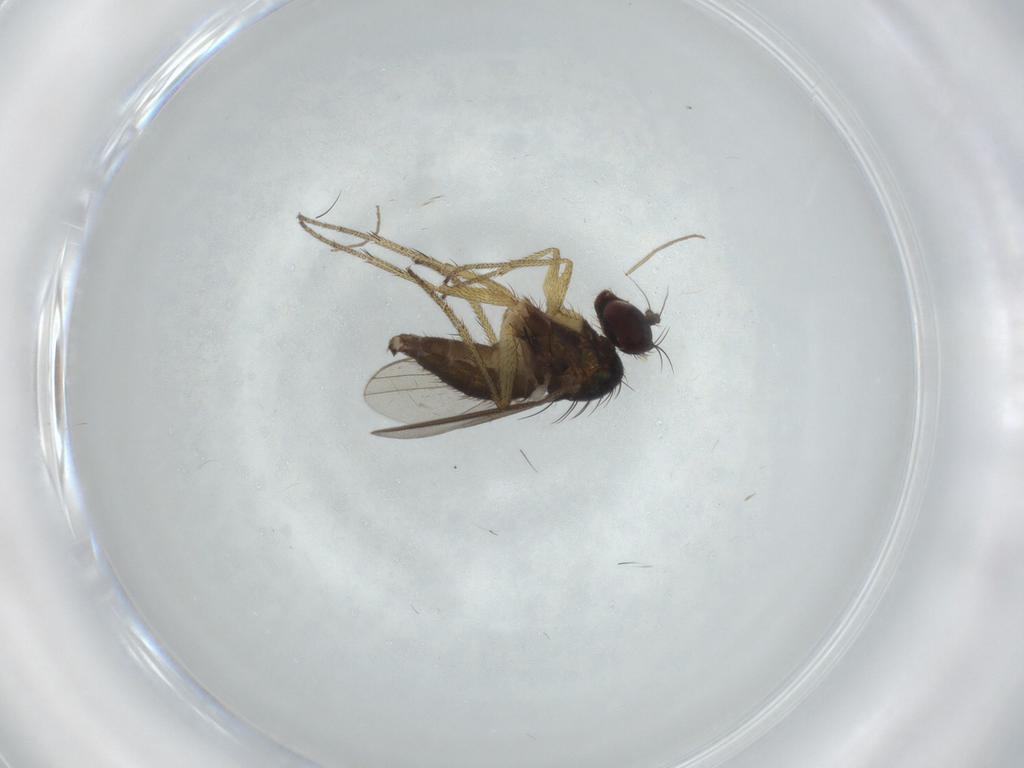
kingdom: Animalia
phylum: Arthropoda
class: Insecta
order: Diptera
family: Dolichopodidae
